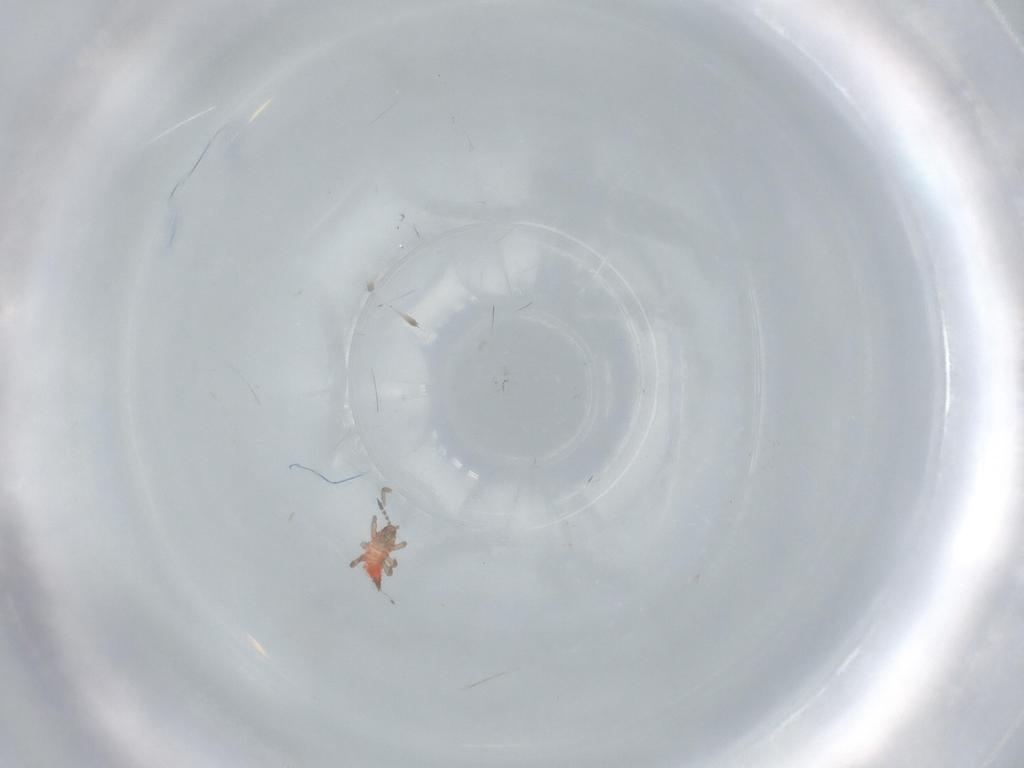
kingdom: Animalia
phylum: Arthropoda
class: Insecta
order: Thysanoptera
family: Phlaeothripidae
